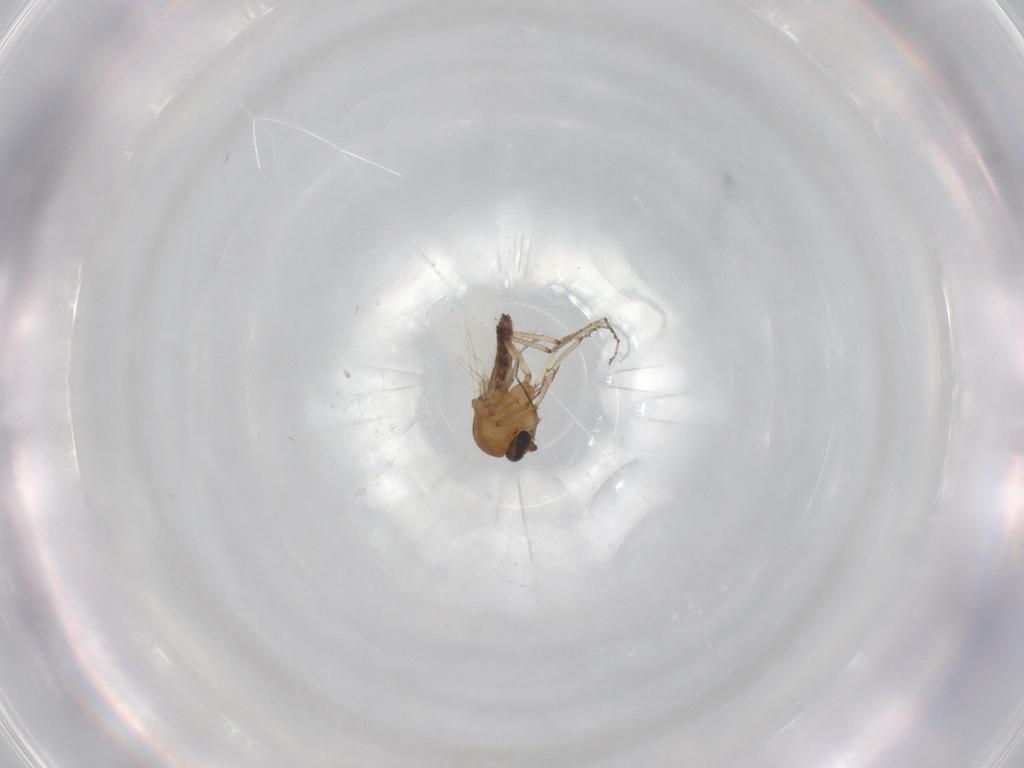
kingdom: Animalia
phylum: Arthropoda
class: Insecta
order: Diptera
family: Ceratopogonidae
